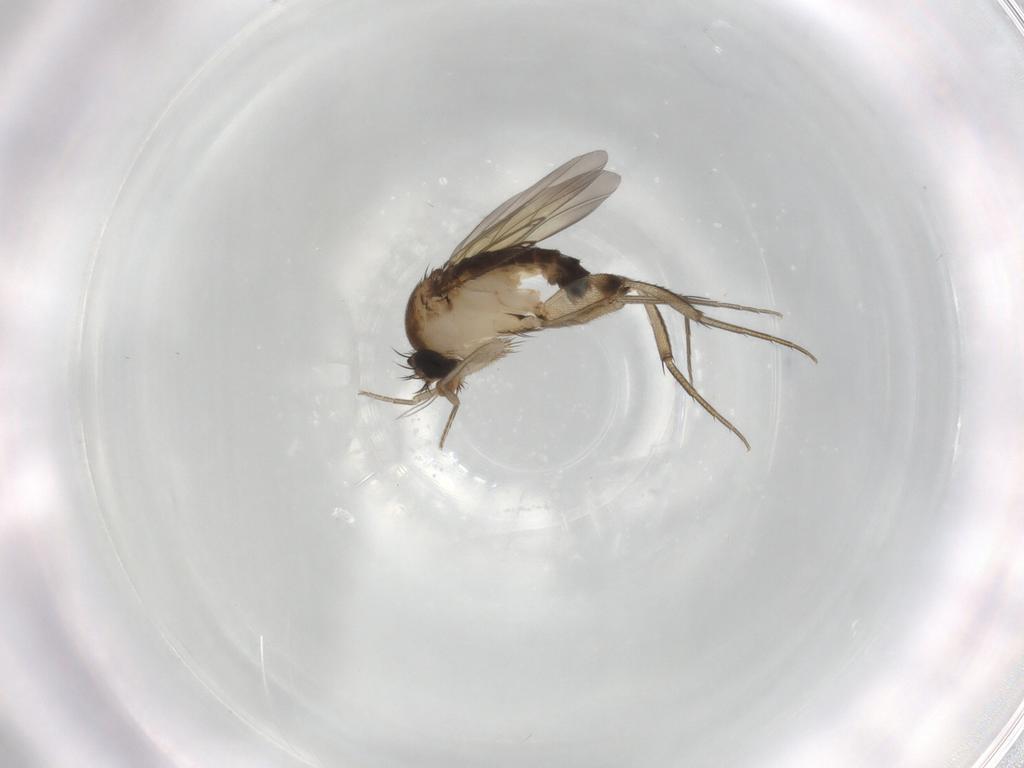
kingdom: Animalia
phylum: Arthropoda
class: Insecta
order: Diptera
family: Phoridae
